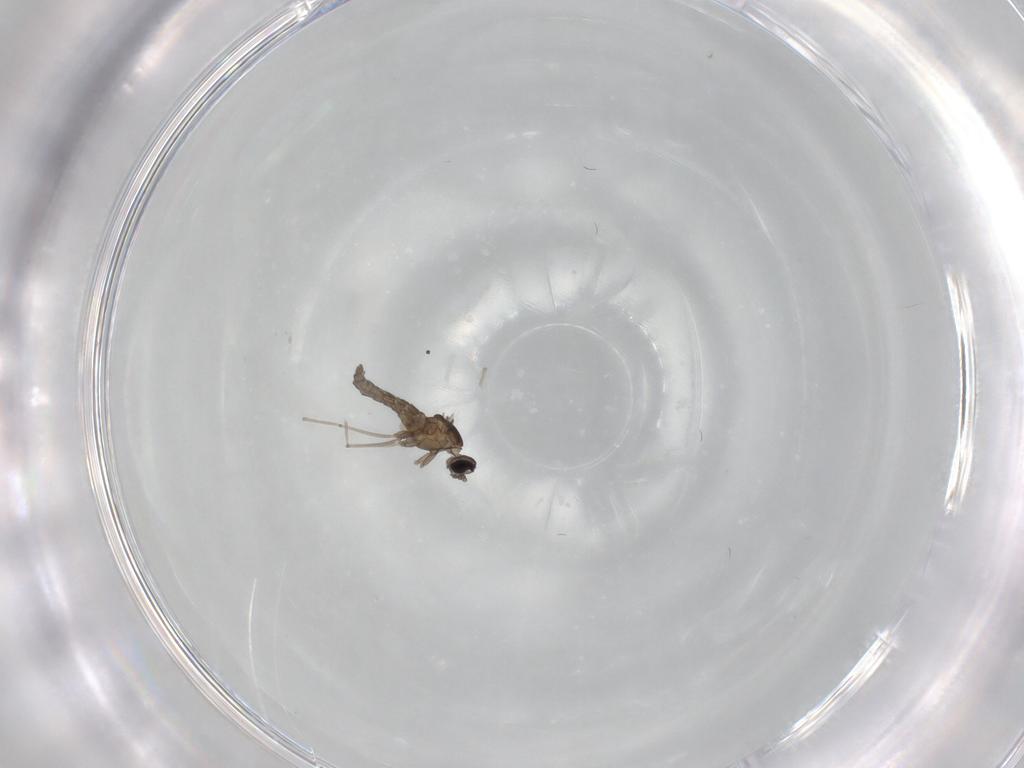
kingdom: Animalia
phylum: Arthropoda
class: Insecta
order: Diptera
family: Cecidomyiidae
